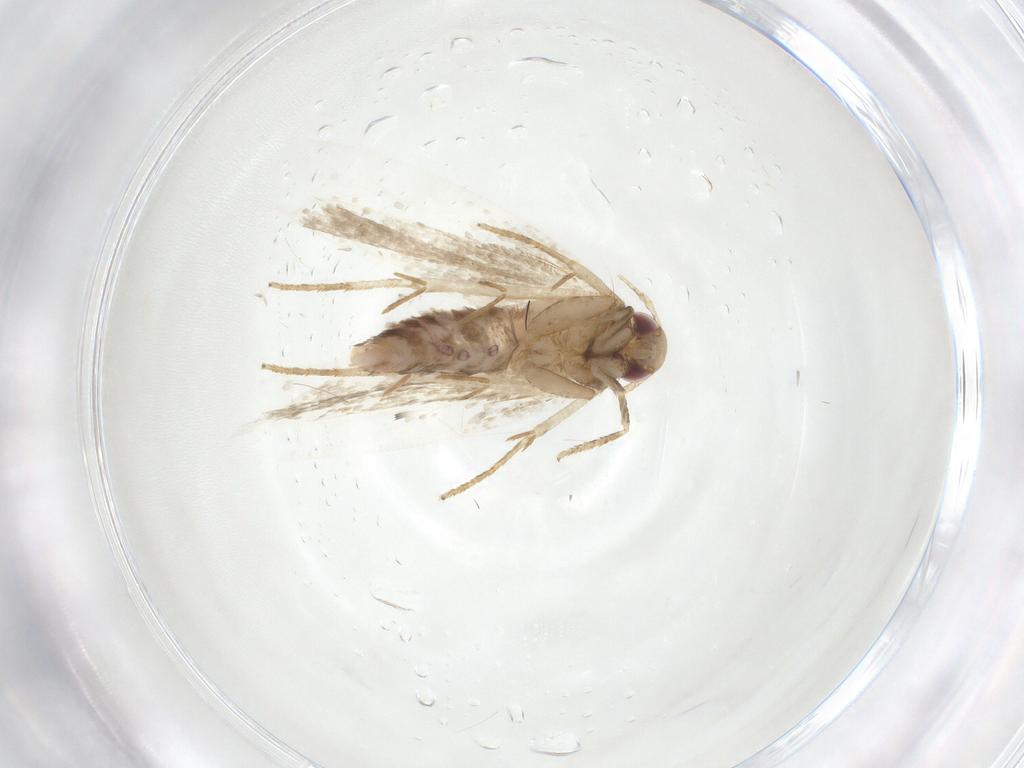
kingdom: Animalia
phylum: Arthropoda
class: Insecta
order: Lepidoptera
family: Gelechiidae
